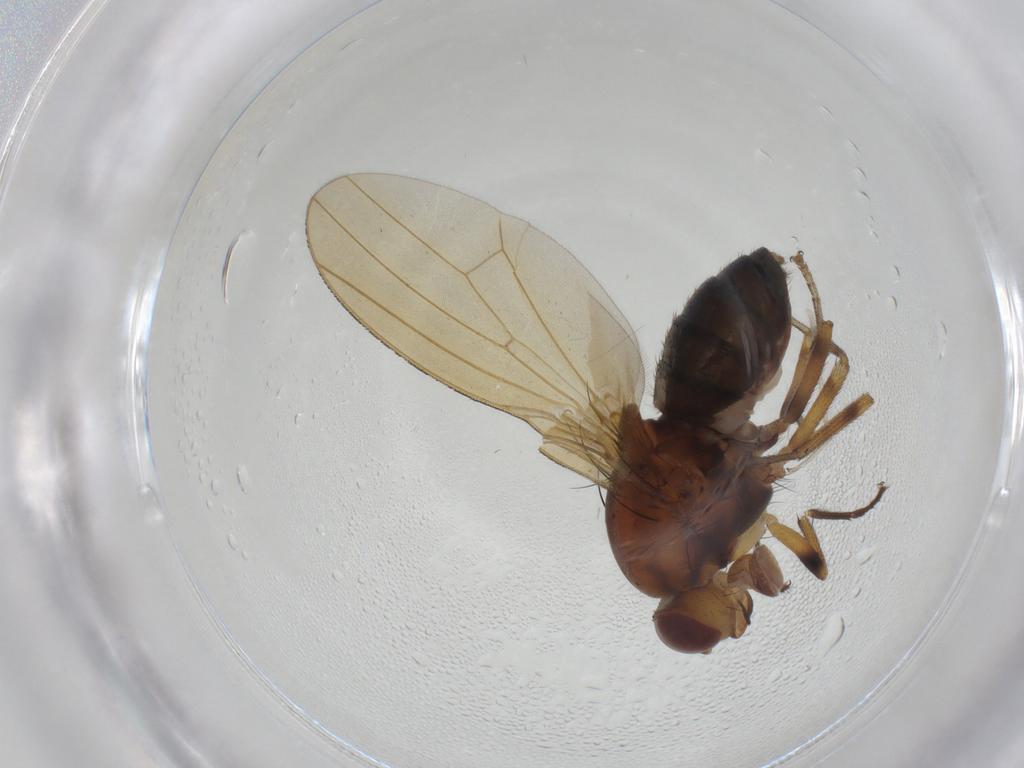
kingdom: Animalia
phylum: Arthropoda
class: Insecta
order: Diptera
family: Lauxaniidae
